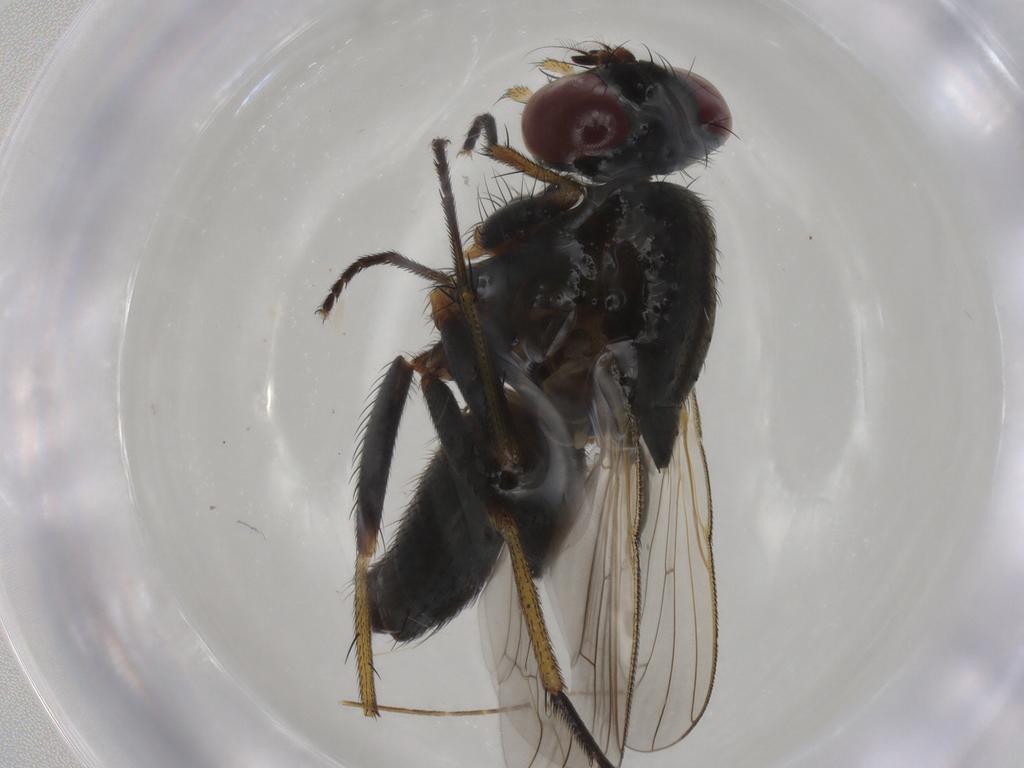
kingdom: Animalia
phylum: Arthropoda
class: Insecta
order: Diptera
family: Muscidae
